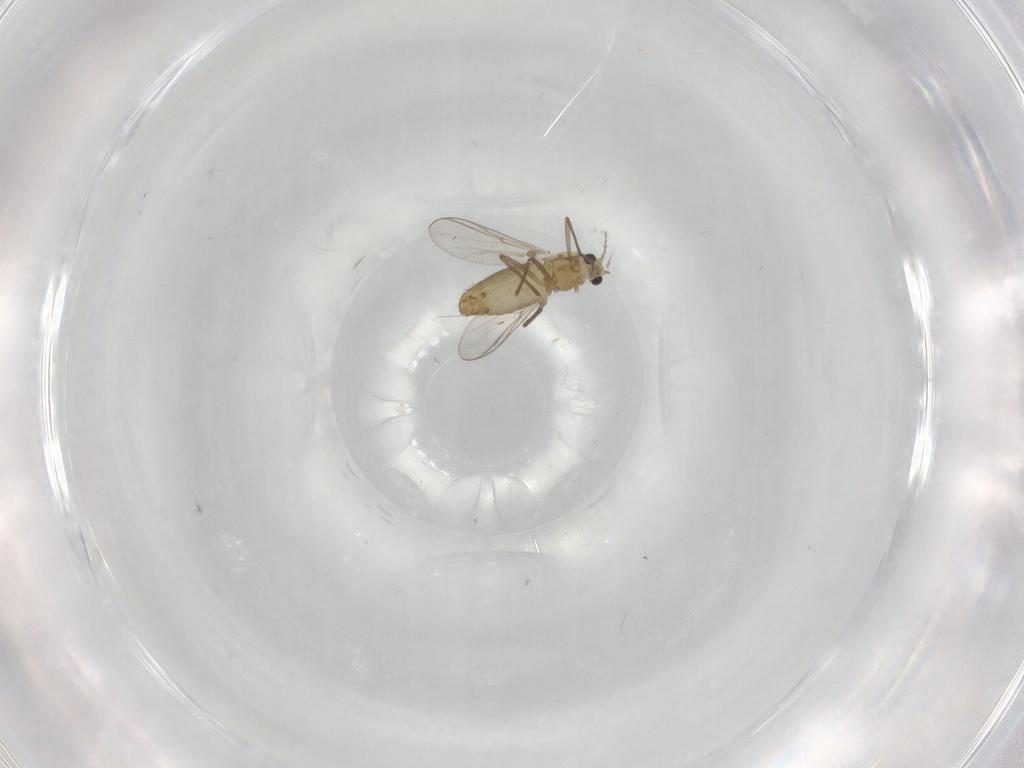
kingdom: Animalia
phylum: Arthropoda
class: Insecta
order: Diptera
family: Chironomidae
